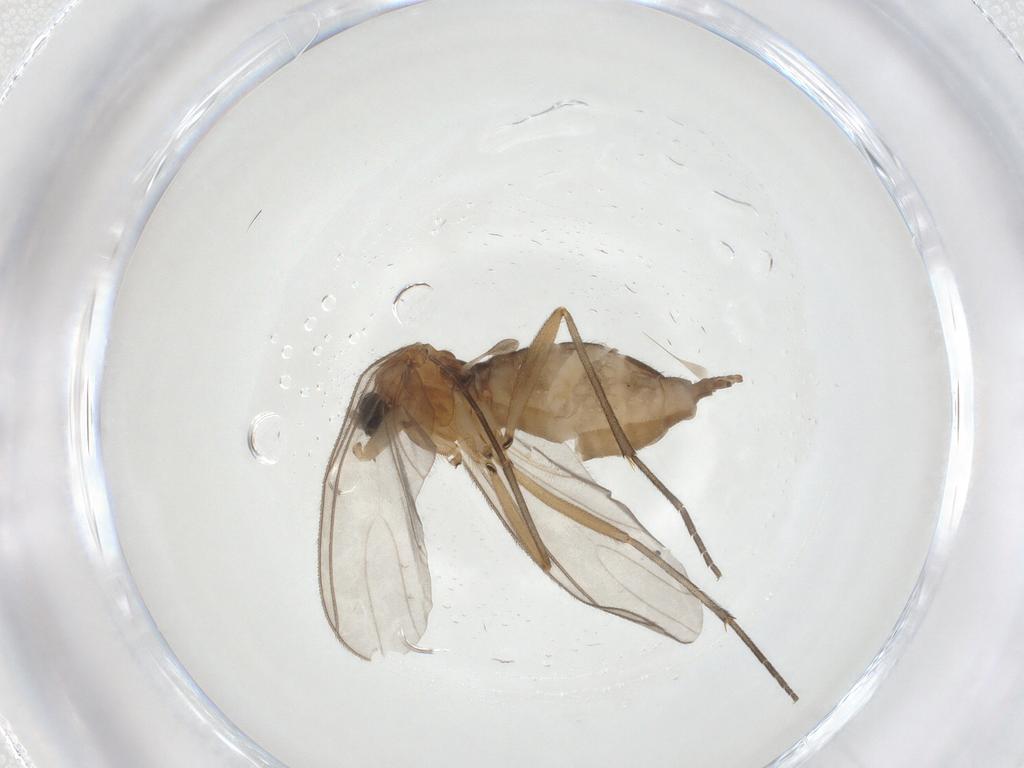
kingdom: Animalia
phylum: Arthropoda
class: Insecta
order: Diptera
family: Sciaridae
